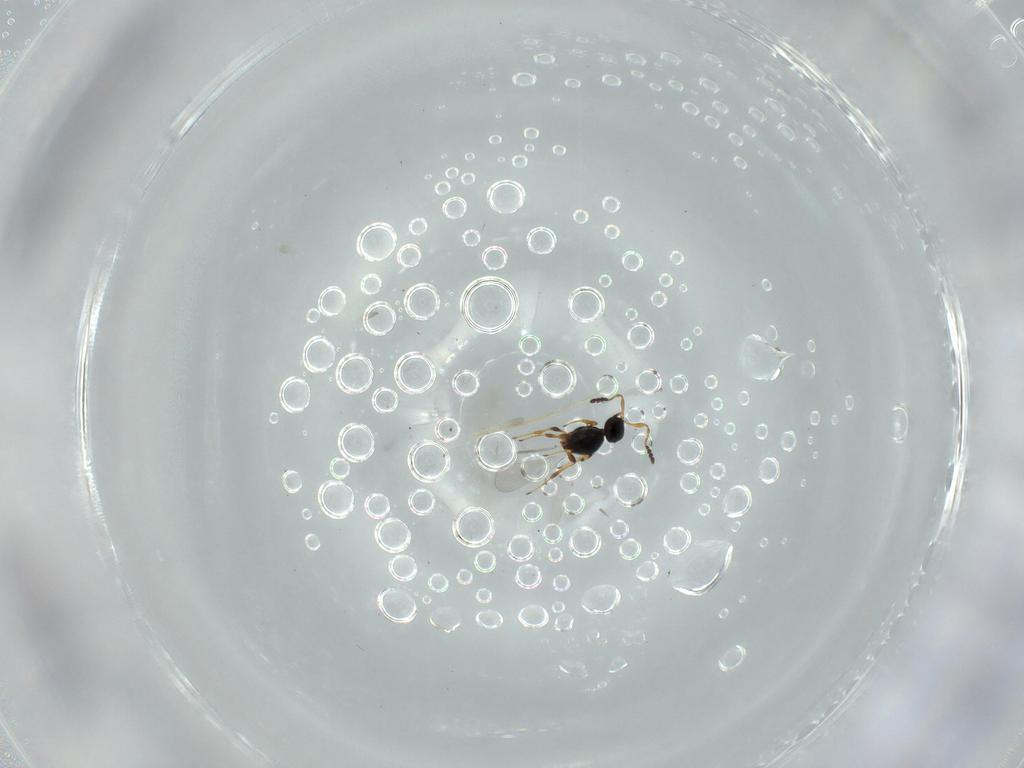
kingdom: Animalia
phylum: Arthropoda
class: Insecta
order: Hymenoptera
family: Platygastridae
